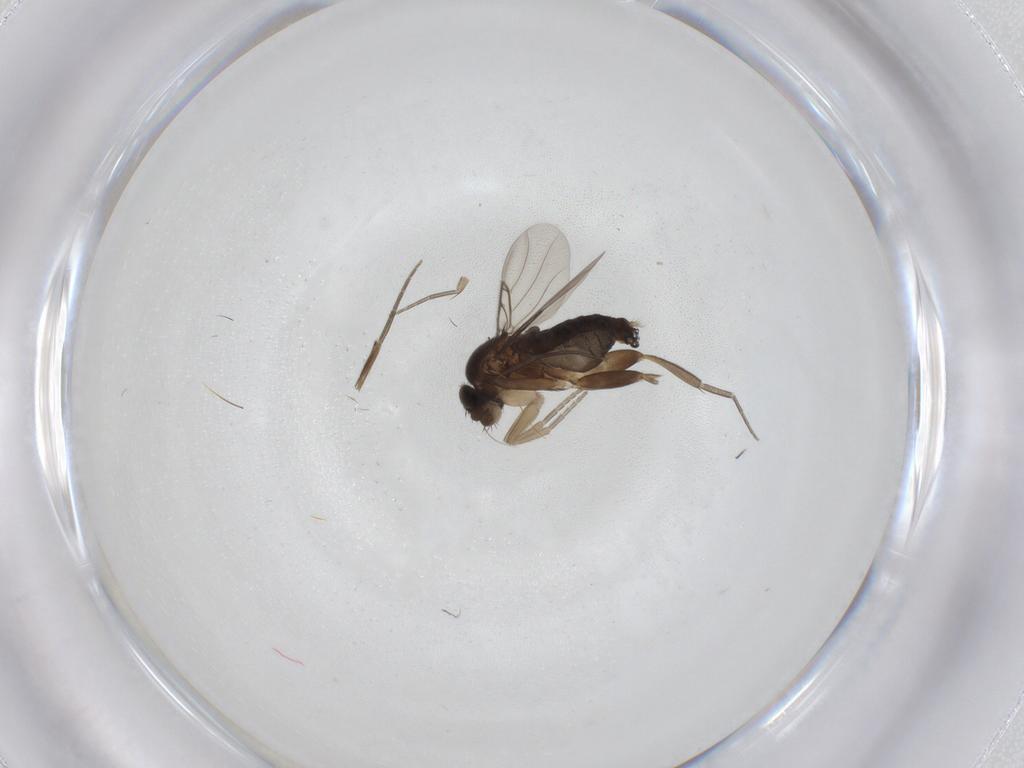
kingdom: Animalia
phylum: Arthropoda
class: Insecta
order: Diptera
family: Phoridae
